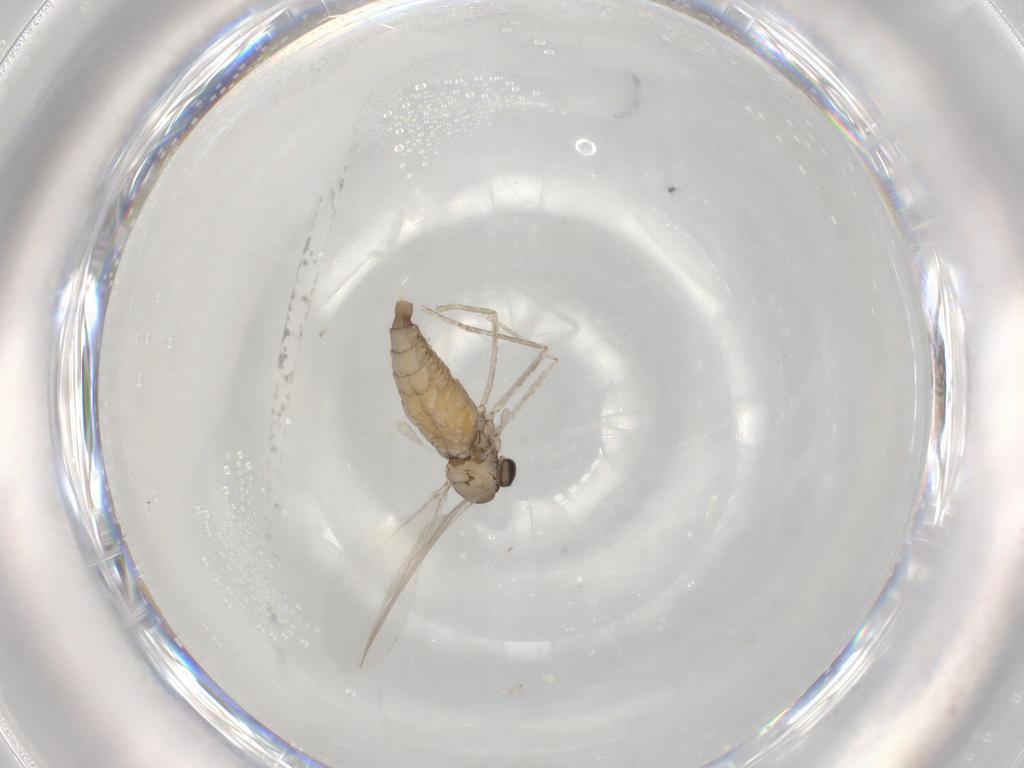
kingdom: Animalia
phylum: Arthropoda
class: Insecta
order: Diptera
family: Cecidomyiidae
